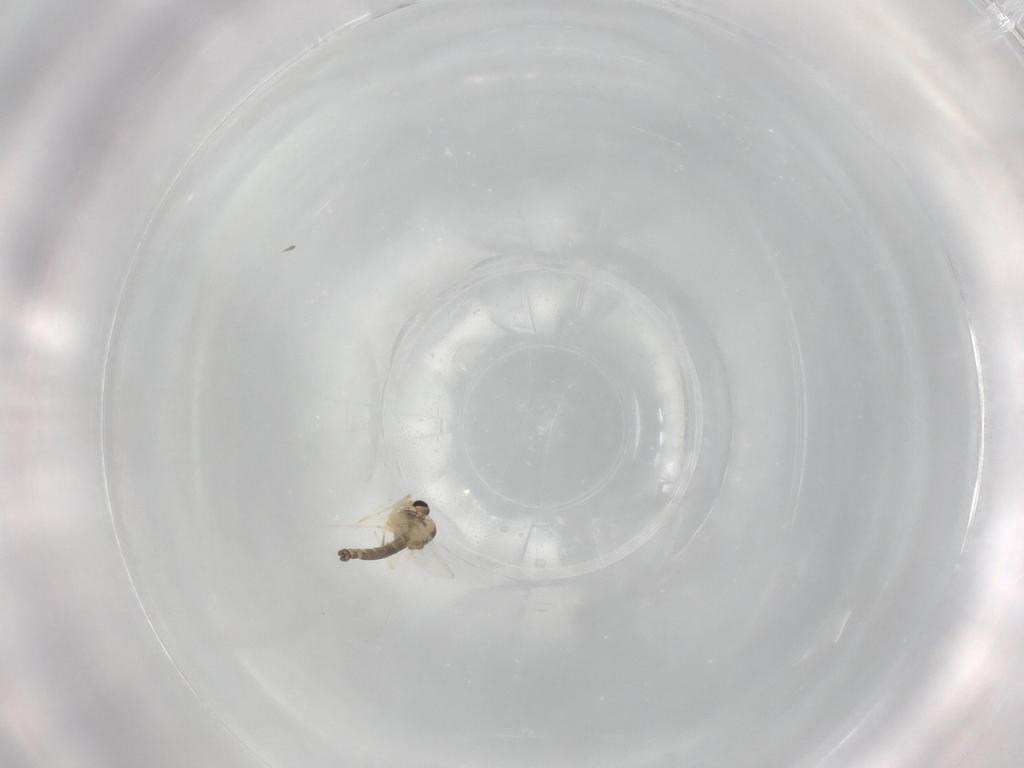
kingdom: Animalia
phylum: Arthropoda
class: Insecta
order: Diptera
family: Chironomidae
